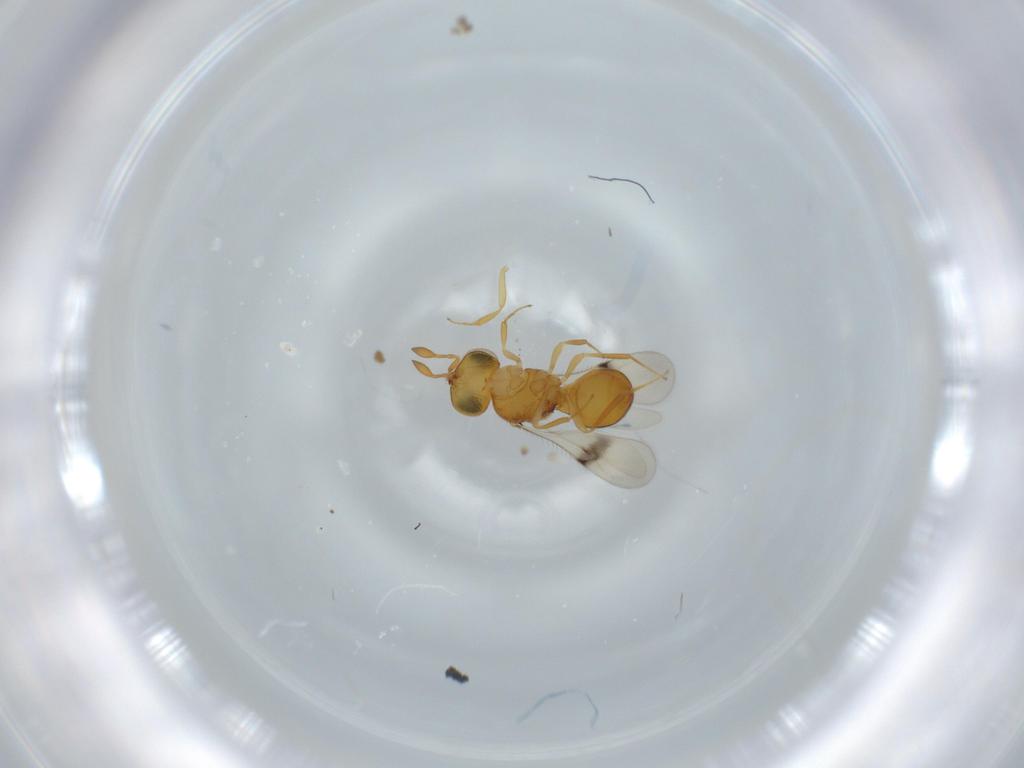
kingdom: Animalia
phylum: Arthropoda
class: Insecta
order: Hymenoptera
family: Scelionidae
